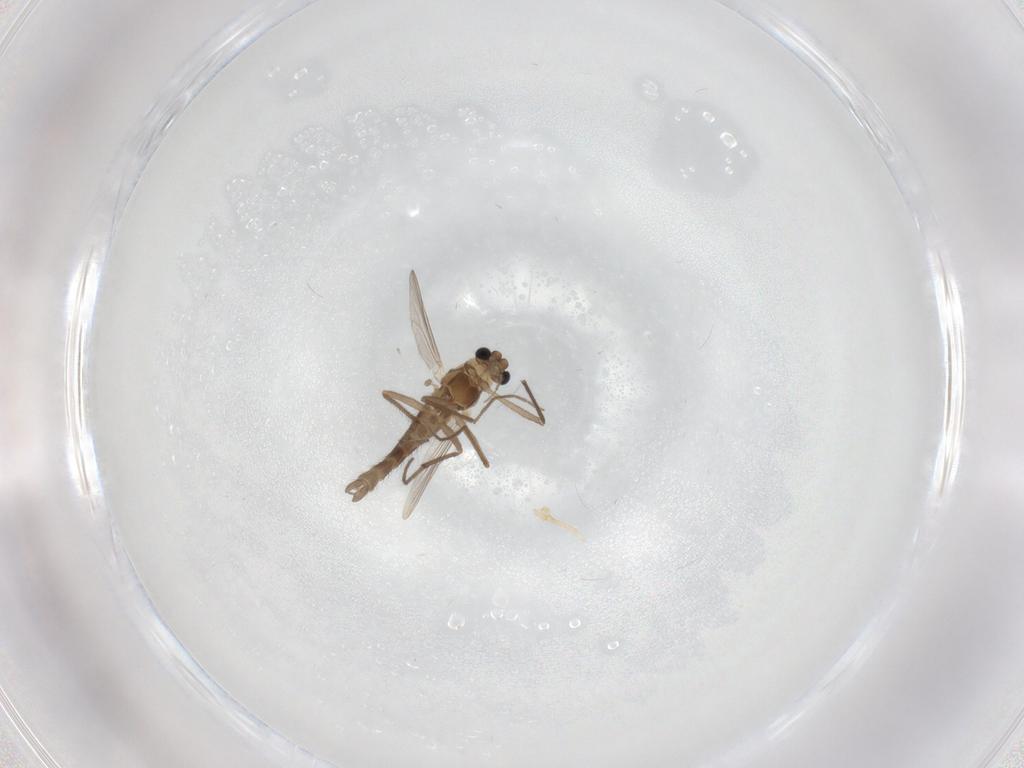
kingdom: Animalia
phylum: Arthropoda
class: Insecta
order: Diptera
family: Chironomidae
